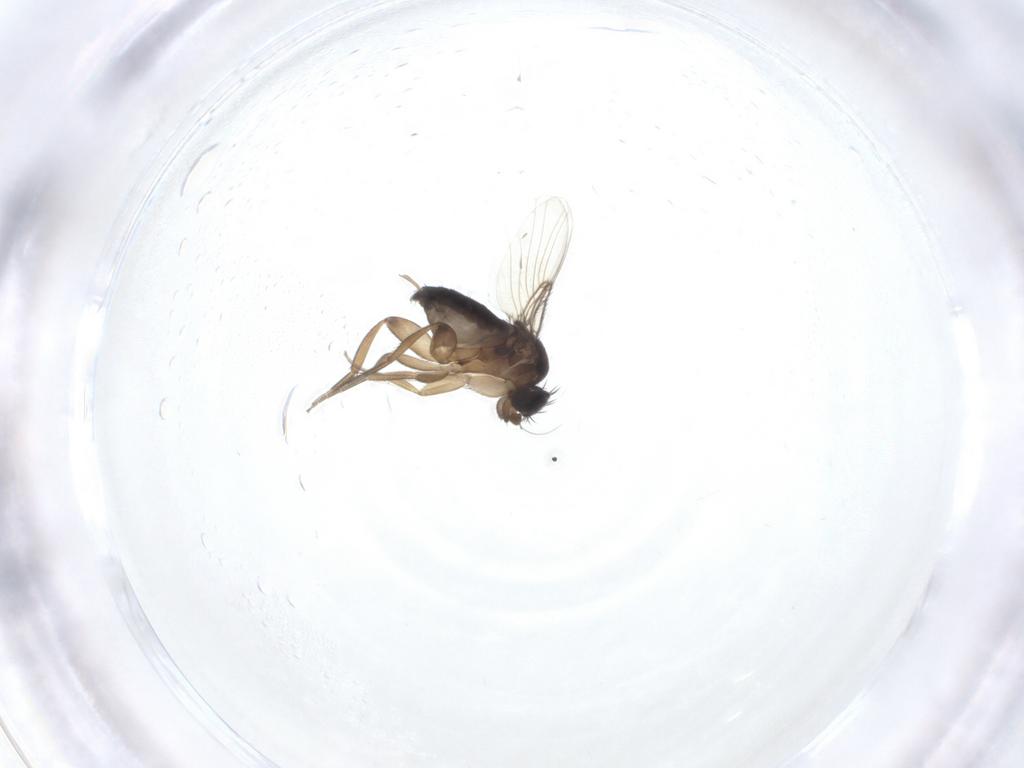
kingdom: Animalia
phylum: Arthropoda
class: Insecta
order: Diptera
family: Phoridae
